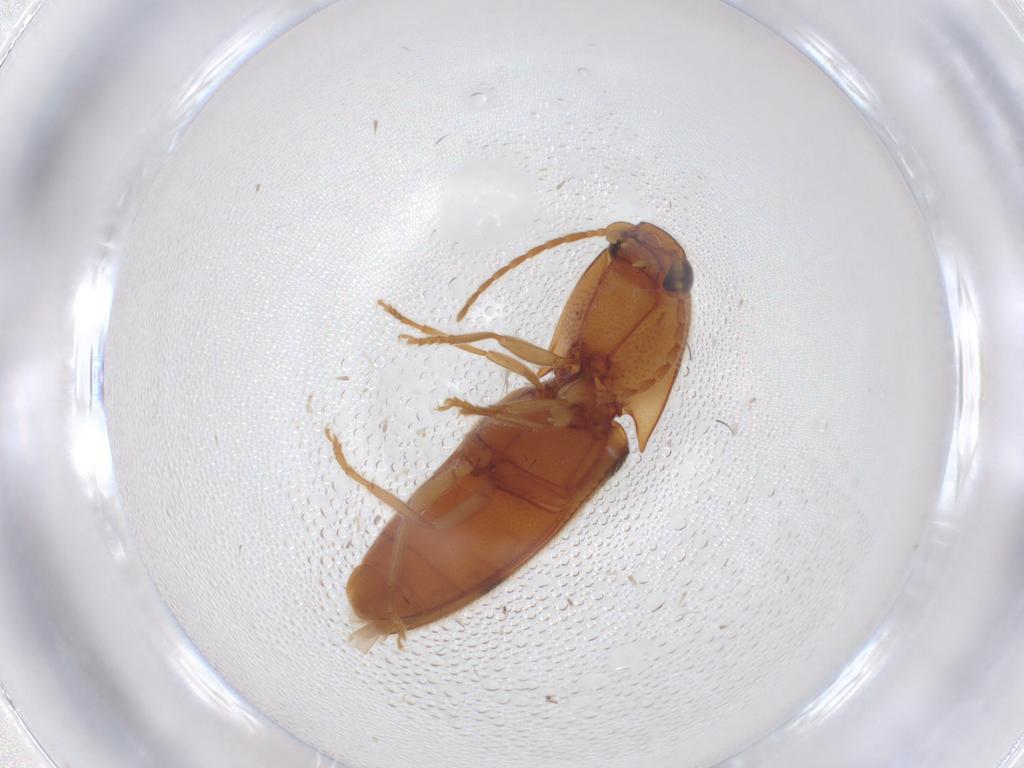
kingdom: Animalia
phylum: Arthropoda
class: Insecta
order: Coleoptera
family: Elateridae
